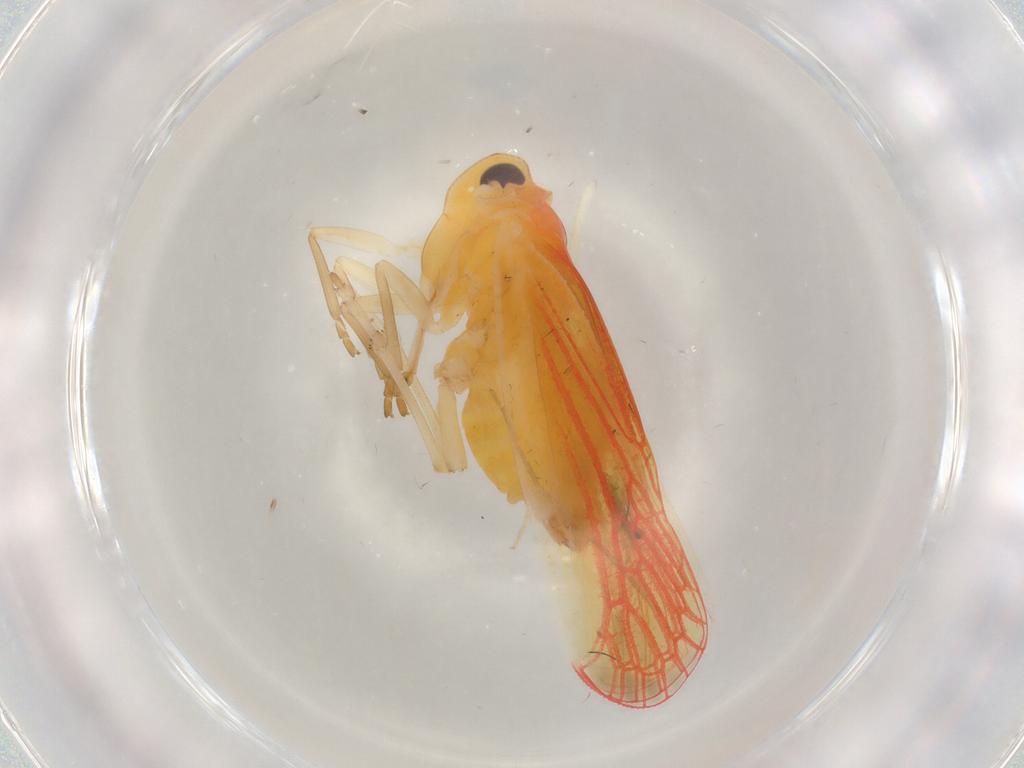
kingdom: Animalia
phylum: Arthropoda
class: Insecta
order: Hemiptera
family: Derbidae
